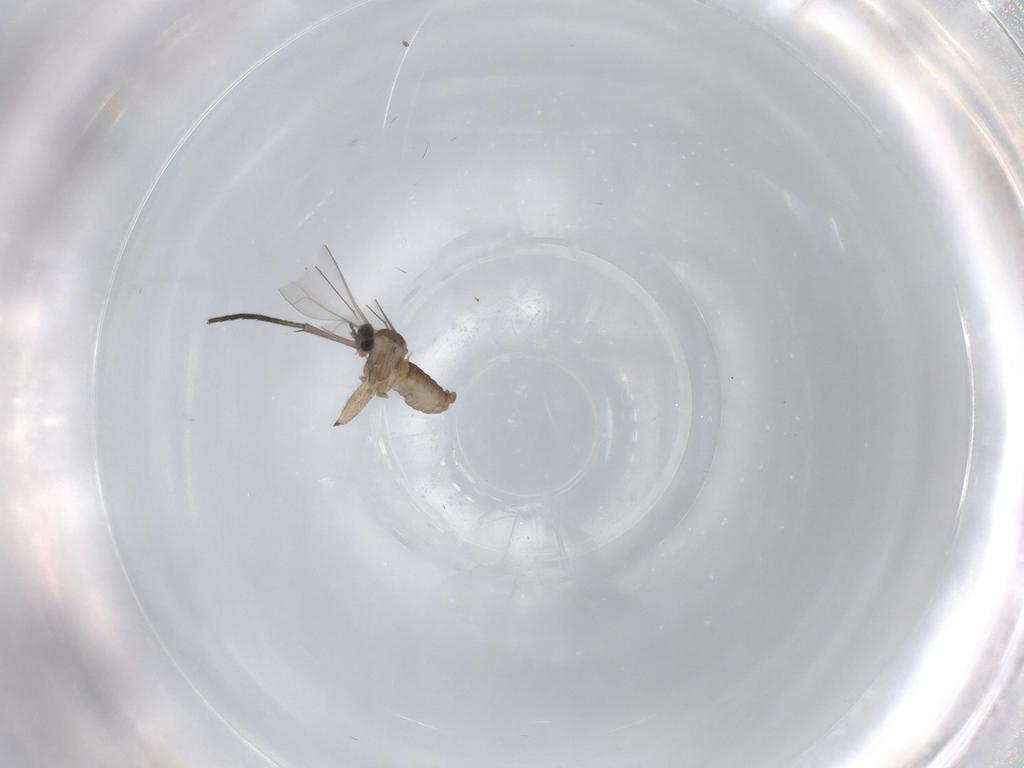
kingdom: Animalia
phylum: Arthropoda
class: Insecta
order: Diptera
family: Cecidomyiidae
